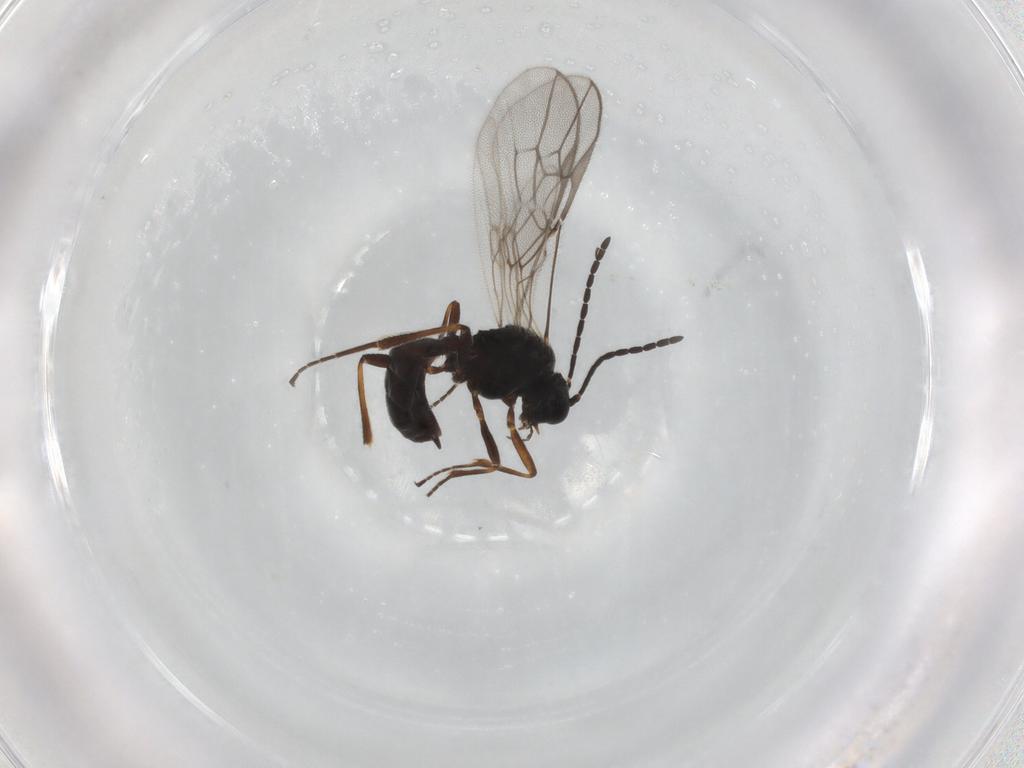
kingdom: Animalia
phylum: Arthropoda
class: Insecta
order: Hymenoptera
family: Braconidae
